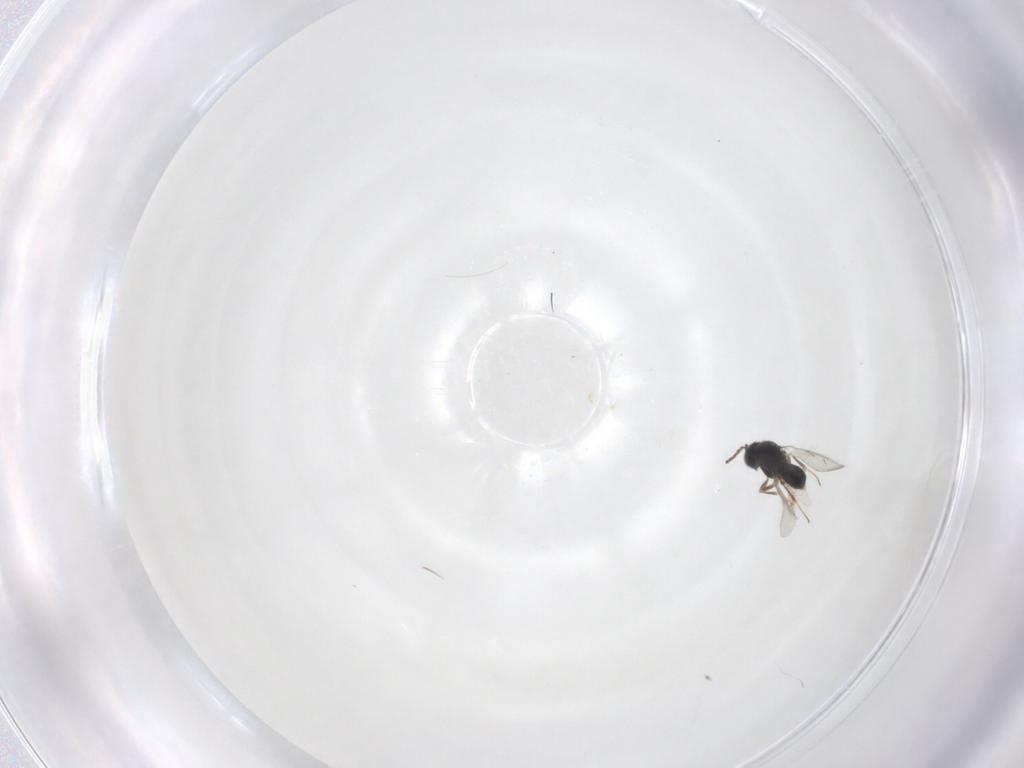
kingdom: Animalia
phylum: Arthropoda
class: Insecta
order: Hymenoptera
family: Scelionidae
